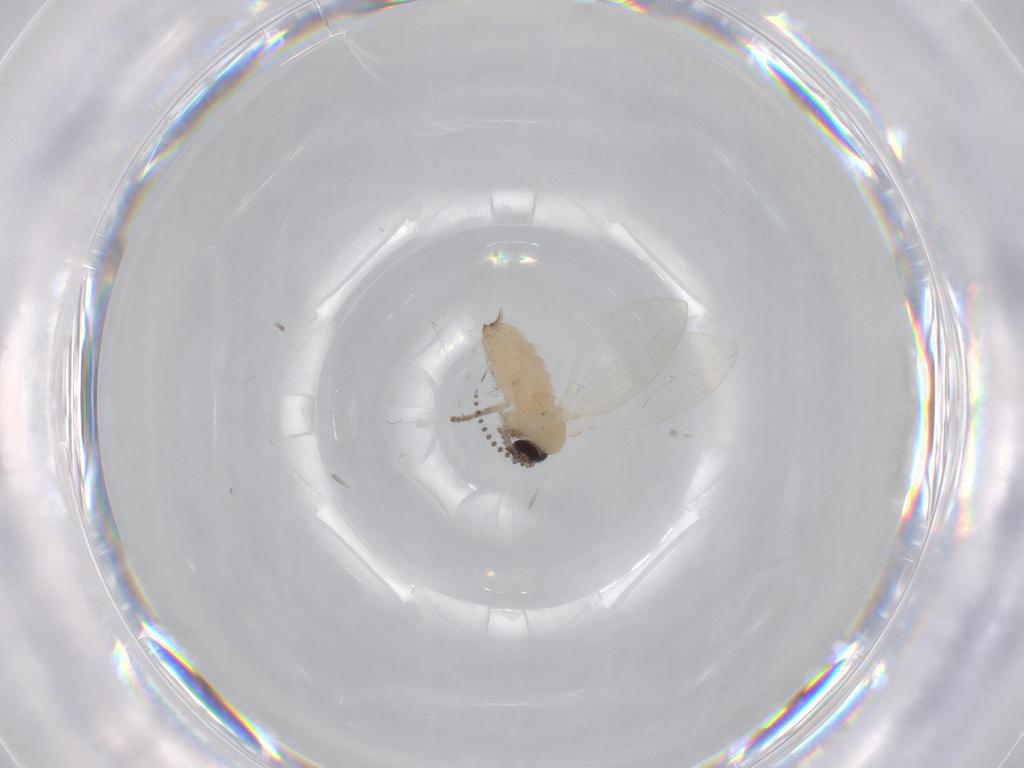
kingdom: Animalia
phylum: Arthropoda
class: Insecta
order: Diptera
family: Psychodidae
